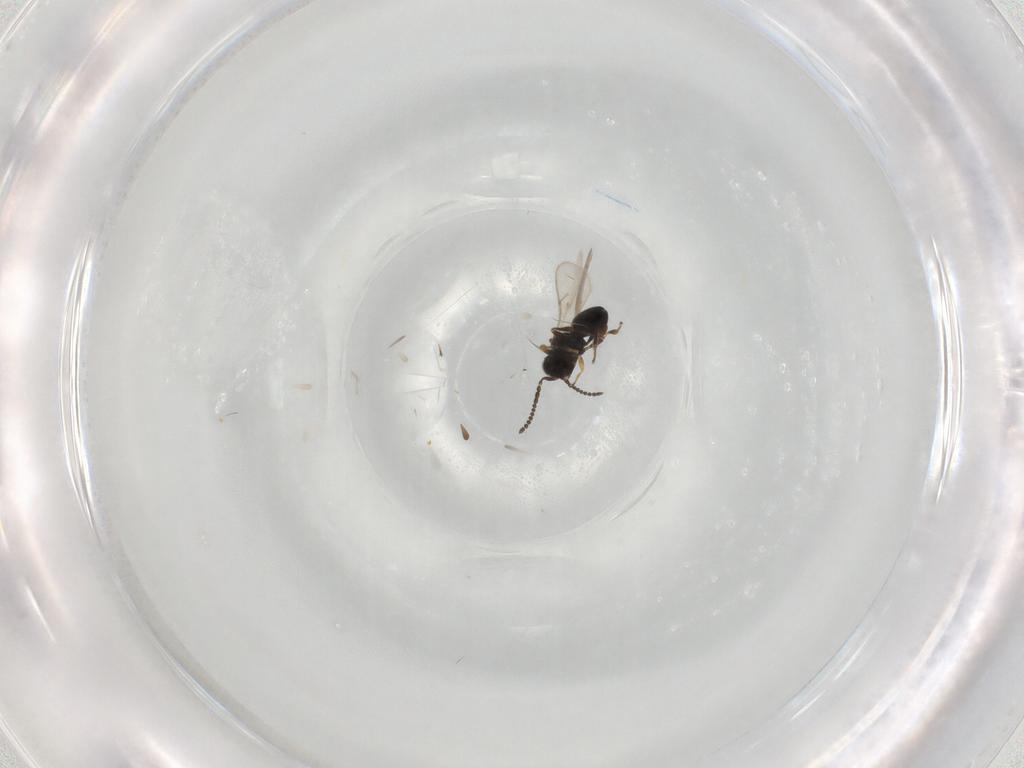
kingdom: Animalia
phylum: Arthropoda
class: Insecta
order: Hymenoptera
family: Scelionidae
